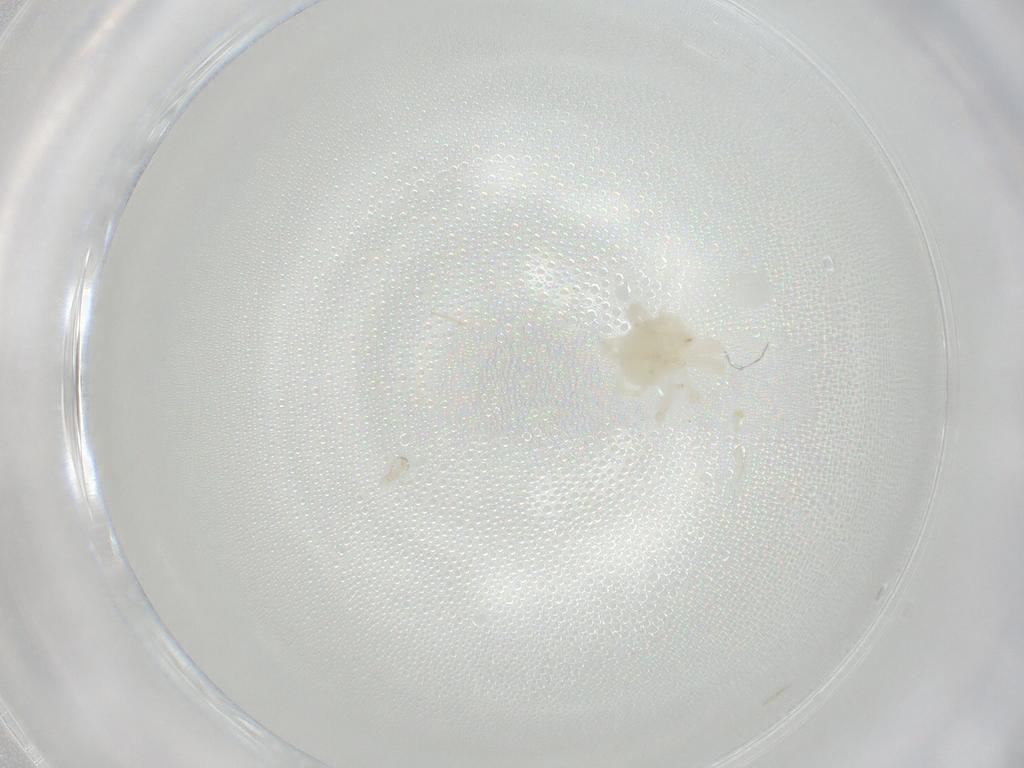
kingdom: Animalia
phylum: Arthropoda
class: Arachnida
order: Trombidiformes
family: Anystidae
